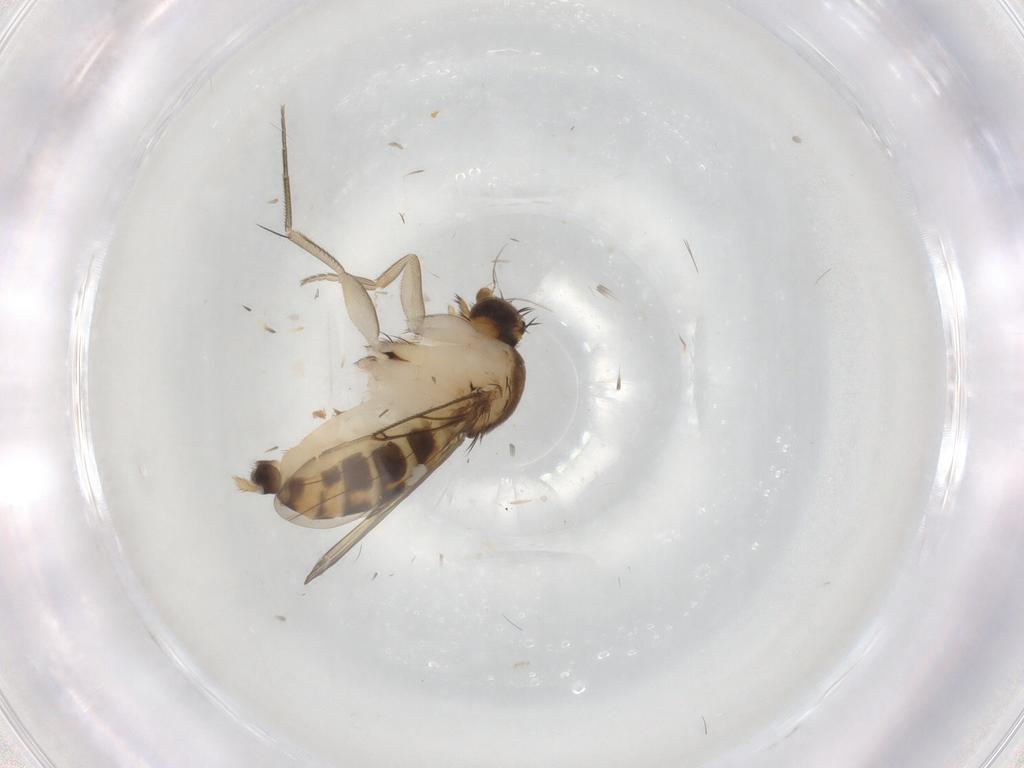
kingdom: Animalia
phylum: Arthropoda
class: Insecta
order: Diptera
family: Phoridae
